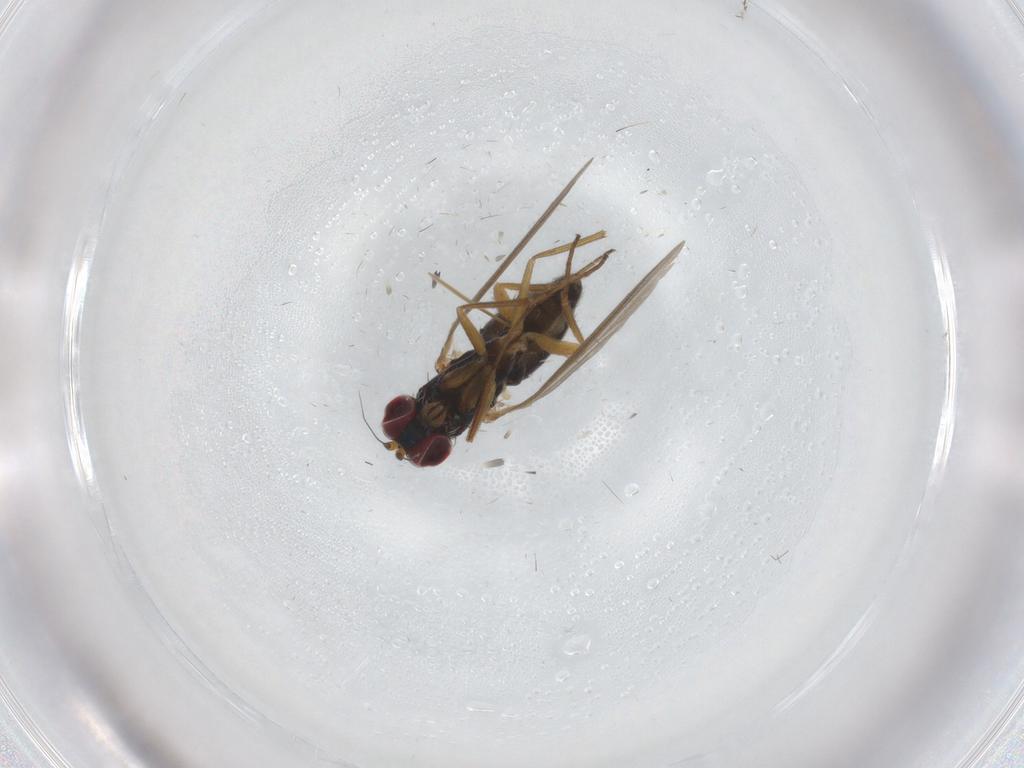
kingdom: Animalia
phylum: Arthropoda
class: Insecta
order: Diptera
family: Dolichopodidae
